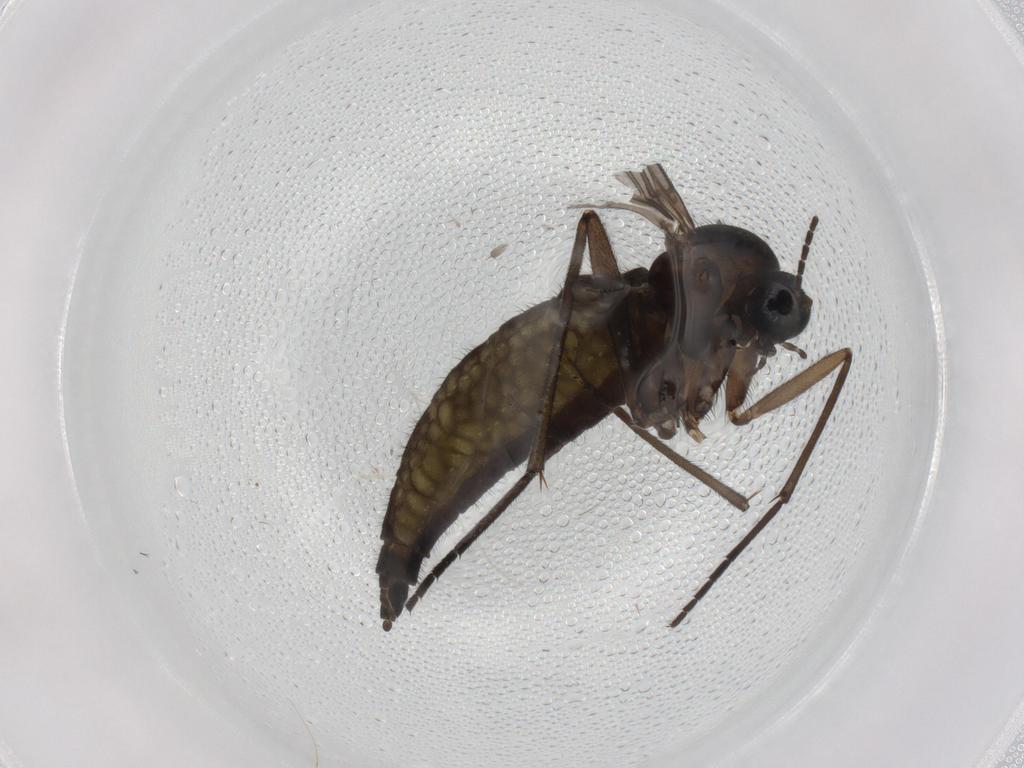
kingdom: Animalia
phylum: Arthropoda
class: Insecta
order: Diptera
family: Sciaridae
